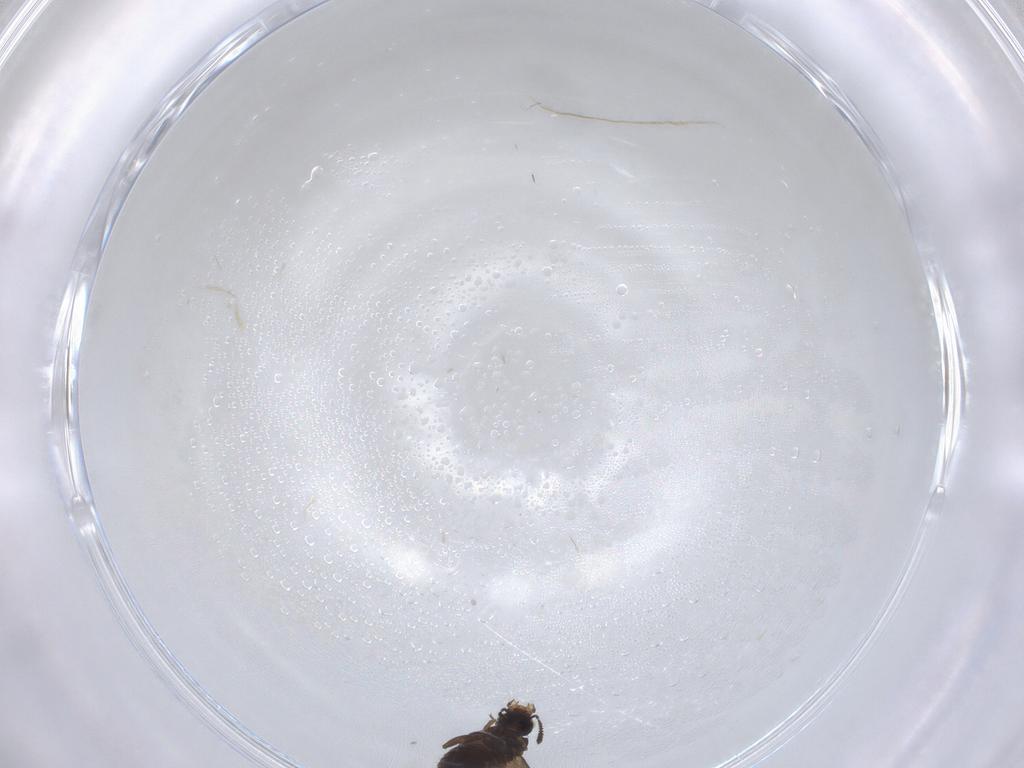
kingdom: Animalia
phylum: Arthropoda
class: Insecta
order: Coleoptera
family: Staphylinidae
